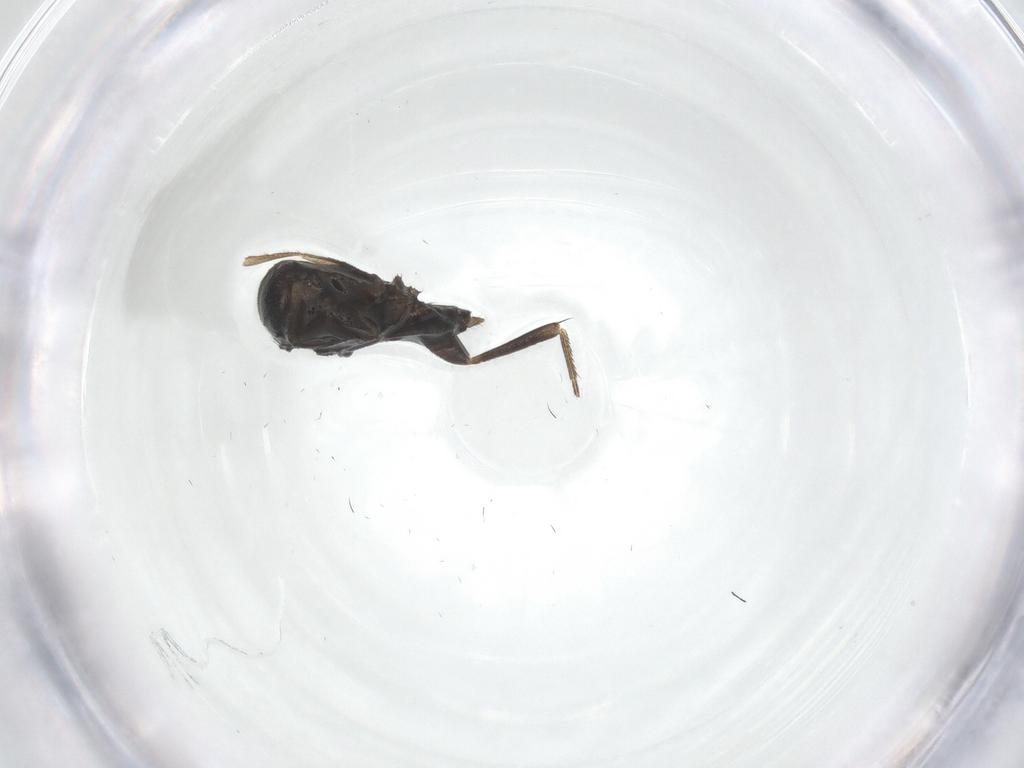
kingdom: Animalia
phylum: Arthropoda
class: Insecta
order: Diptera
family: Phoridae
